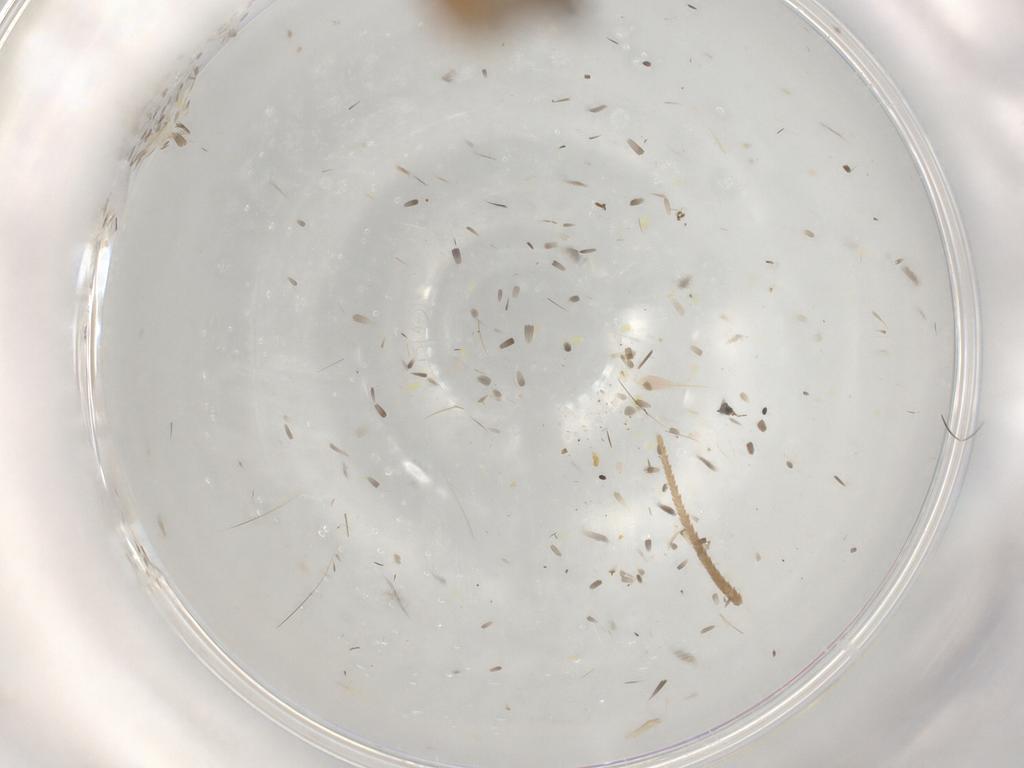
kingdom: Animalia
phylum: Arthropoda
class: Insecta
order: Lepidoptera
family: Elachistidae
